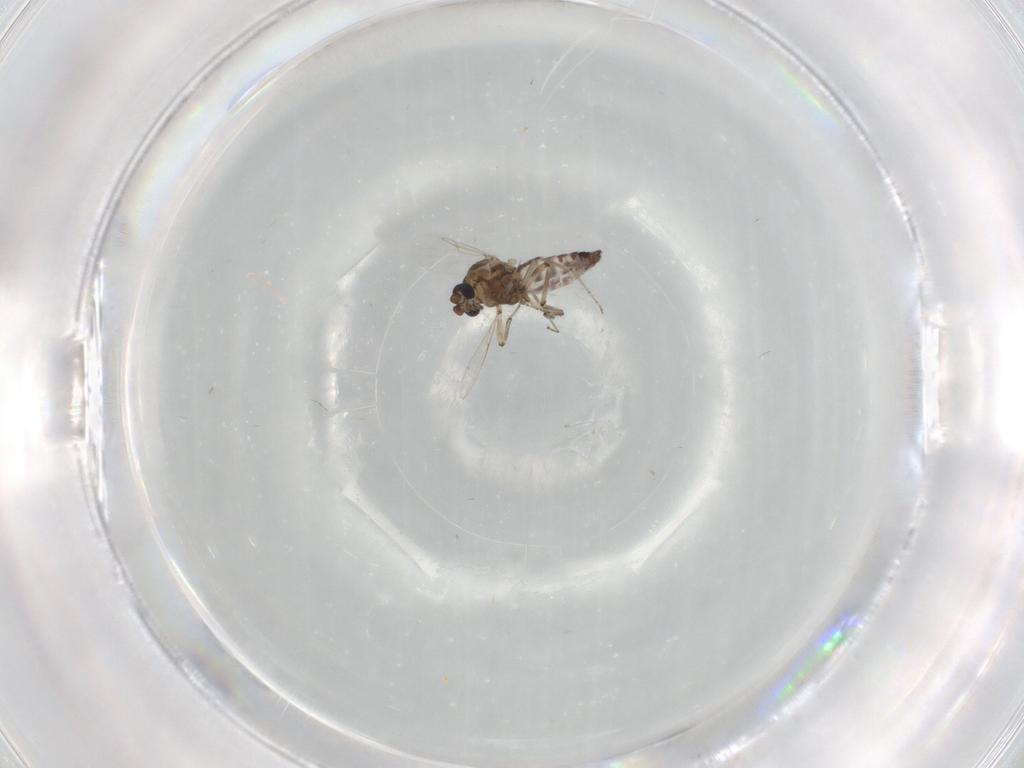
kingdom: Animalia
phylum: Arthropoda
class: Insecta
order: Diptera
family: Ceratopogonidae
